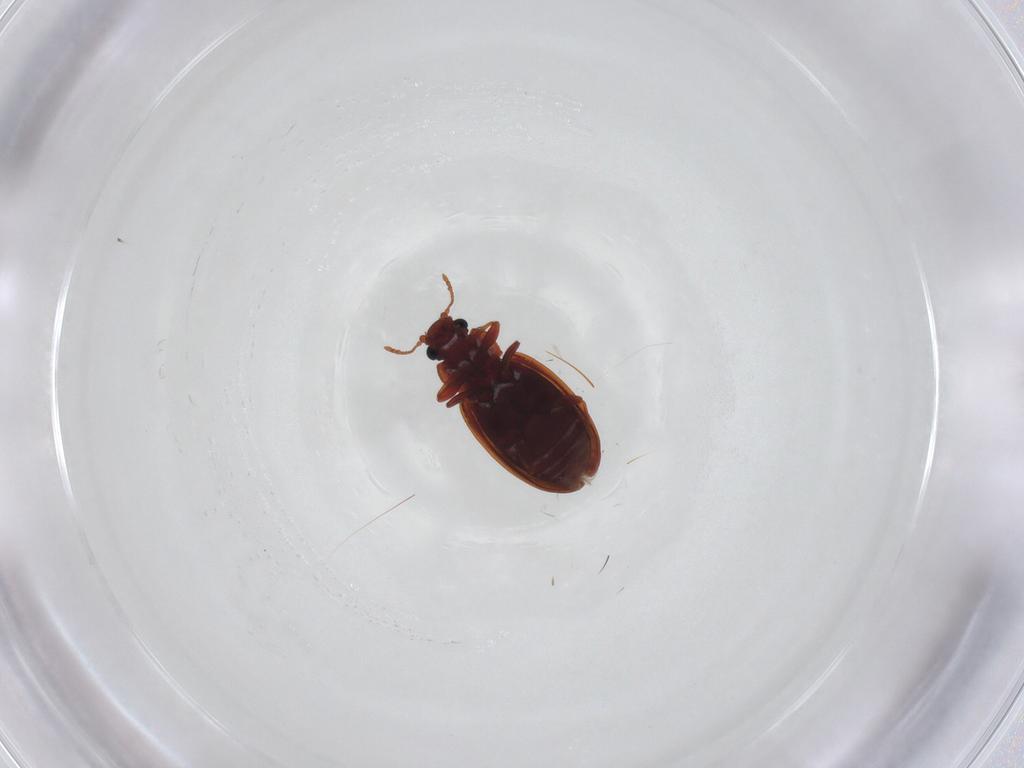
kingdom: Animalia
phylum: Arthropoda
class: Insecta
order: Coleoptera
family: Latridiidae
